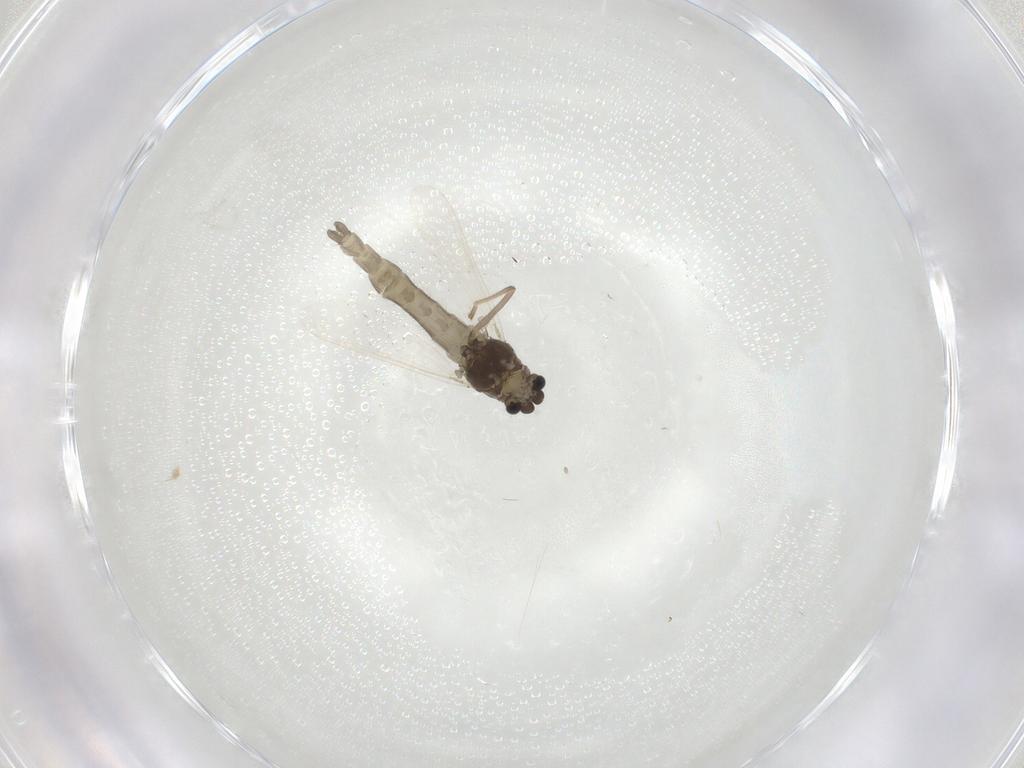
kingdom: Animalia
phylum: Arthropoda
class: Insecta
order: Diptera
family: Chironomidae
